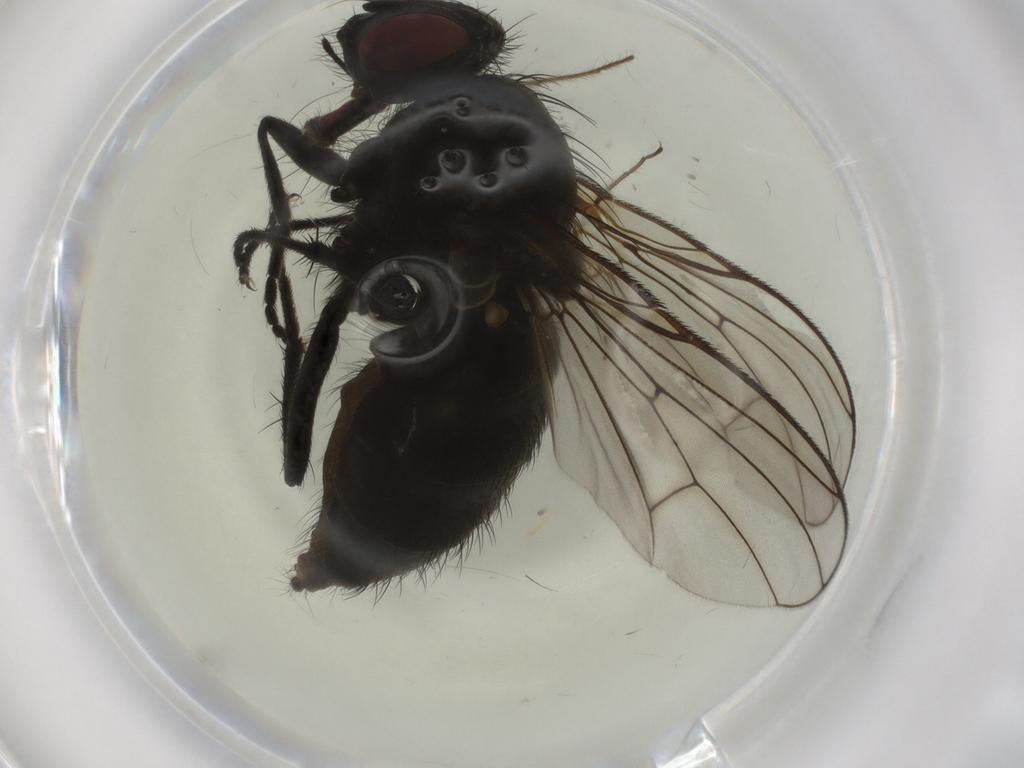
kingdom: Animalia
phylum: Arthropoda
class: Insecta
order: Diptera
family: Muscidae
